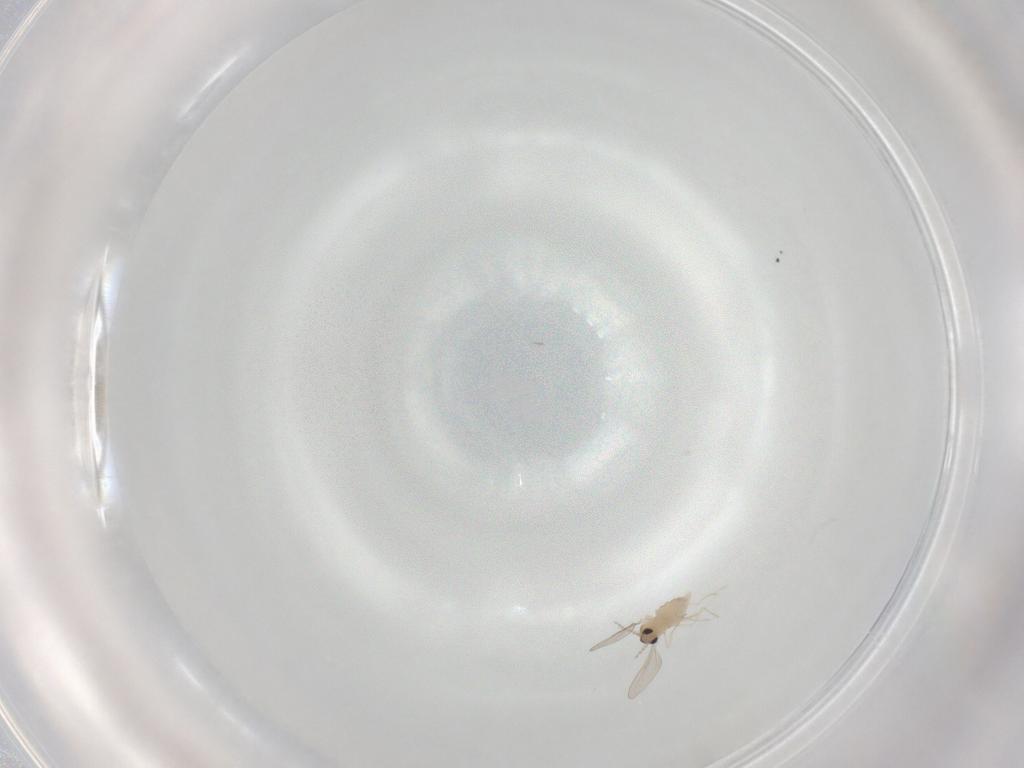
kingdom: Animalia
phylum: Arthropoda
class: Insecta
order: Diptera
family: Cecidomyiidae
